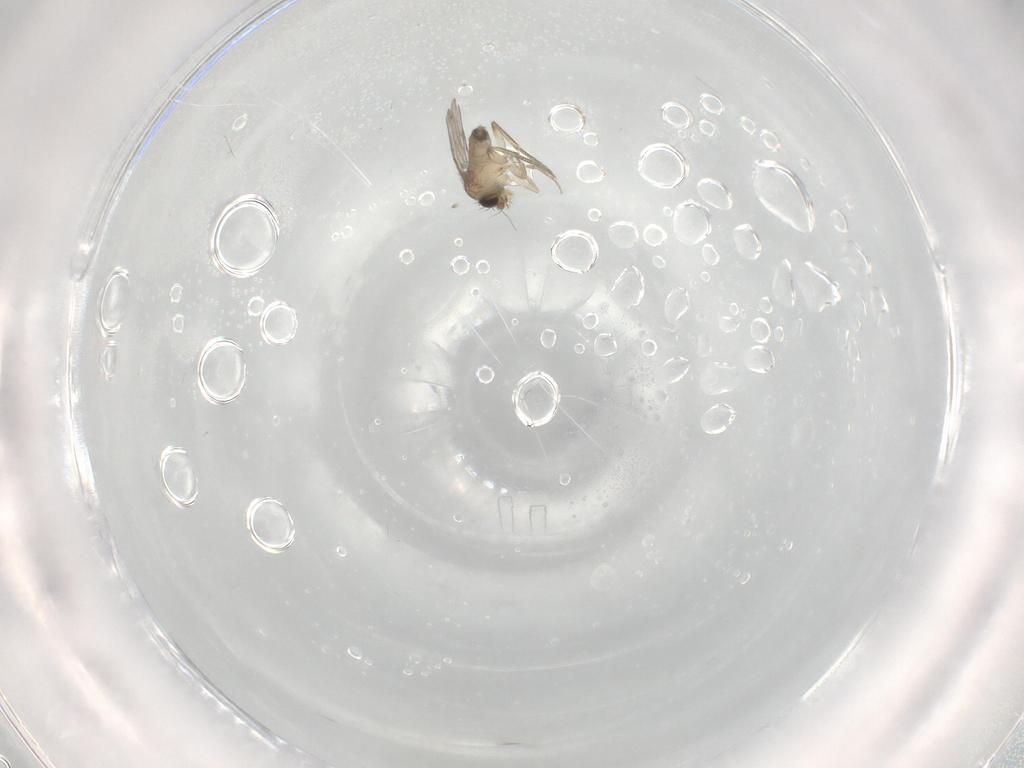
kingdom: Animalia
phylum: Arthropoda
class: Insecta
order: Diptera
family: Phoridae
